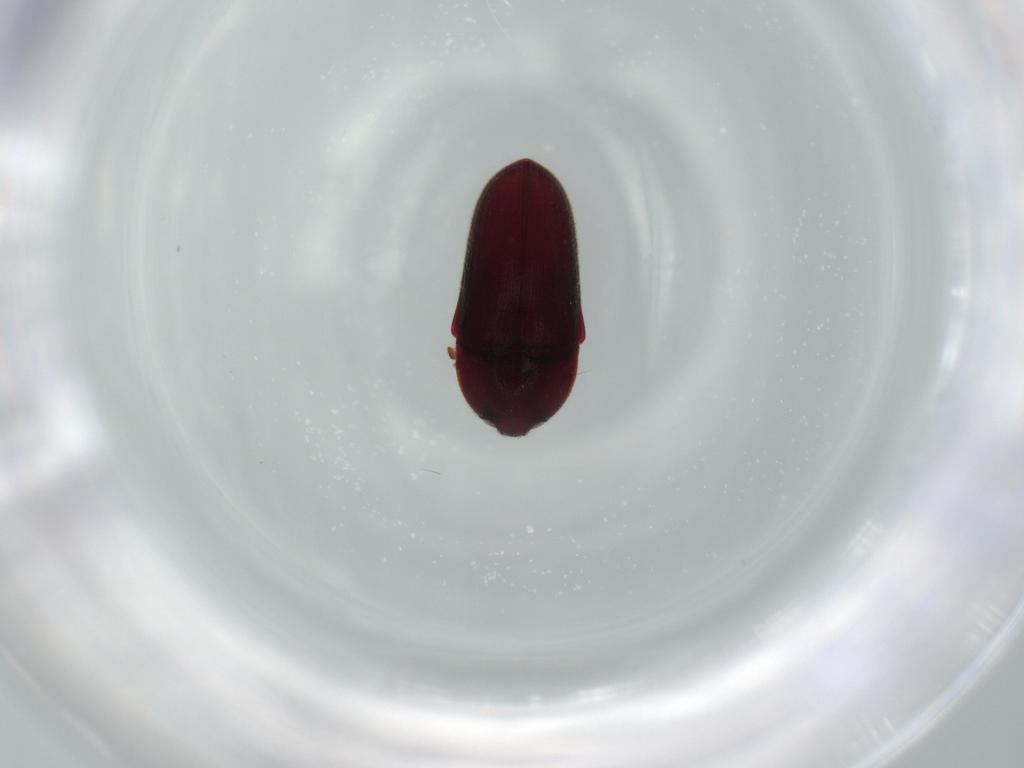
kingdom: Animalia
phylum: Arthropoda
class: Insecta
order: Coleoptera
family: Throscidae
